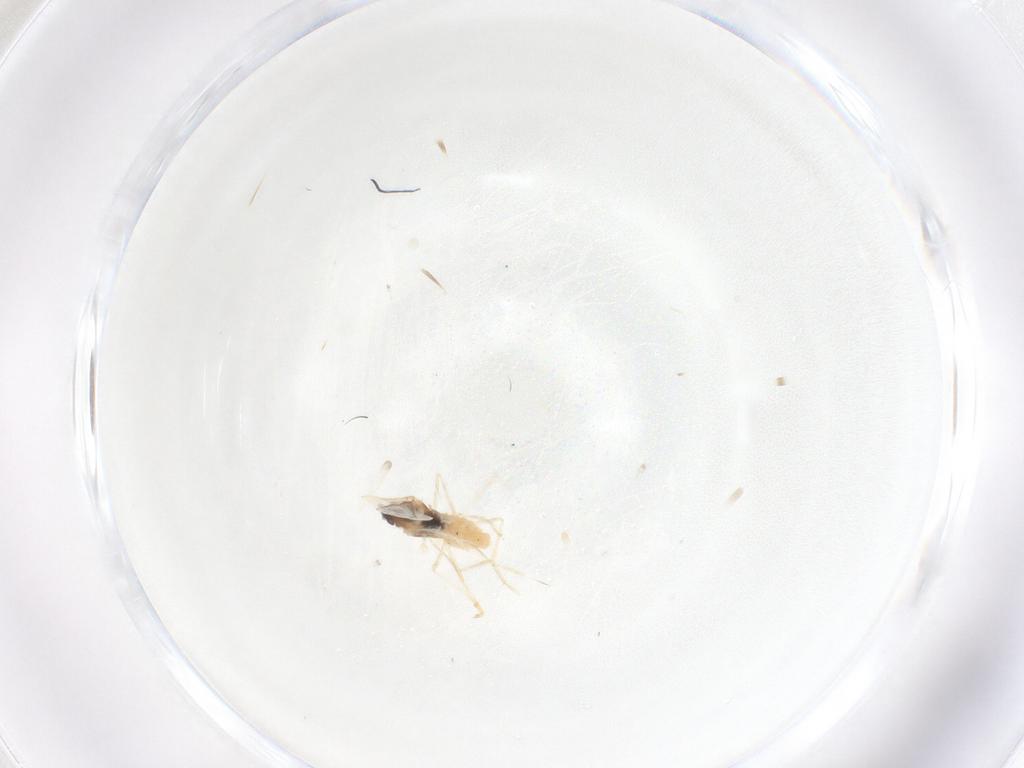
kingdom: Animalia
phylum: Arthropoda
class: Insecta
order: Diptera
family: Cecidomyiidae
